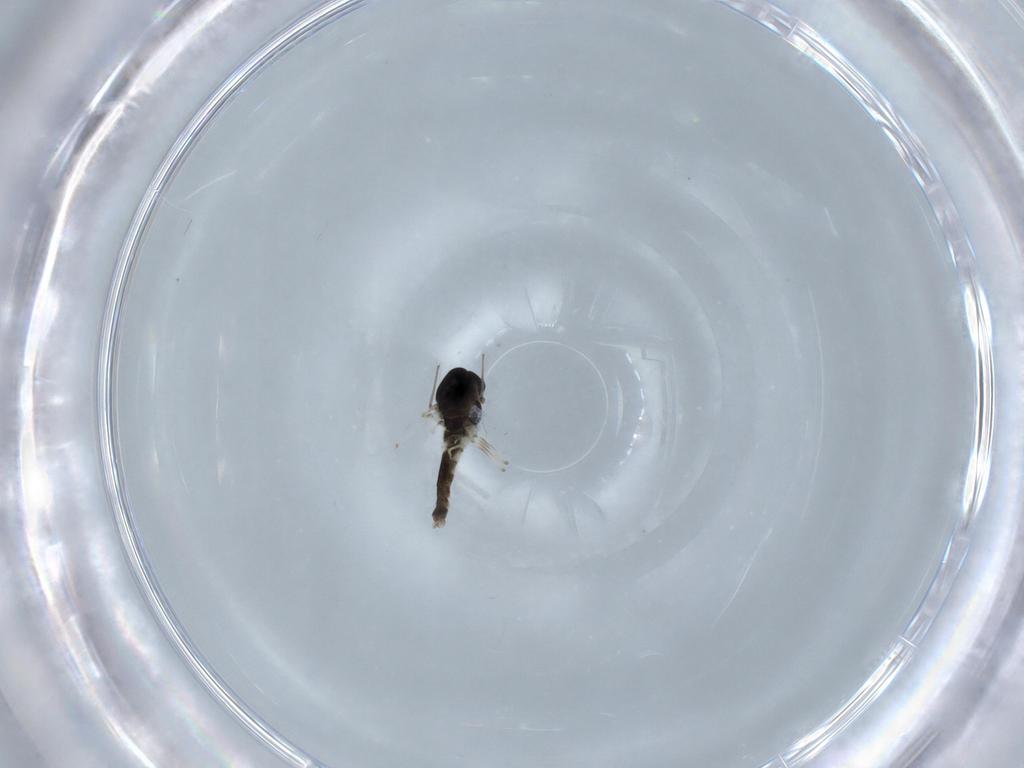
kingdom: Animalia
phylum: Arthropoda
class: Insecta
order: Diptera
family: Chironomidae
